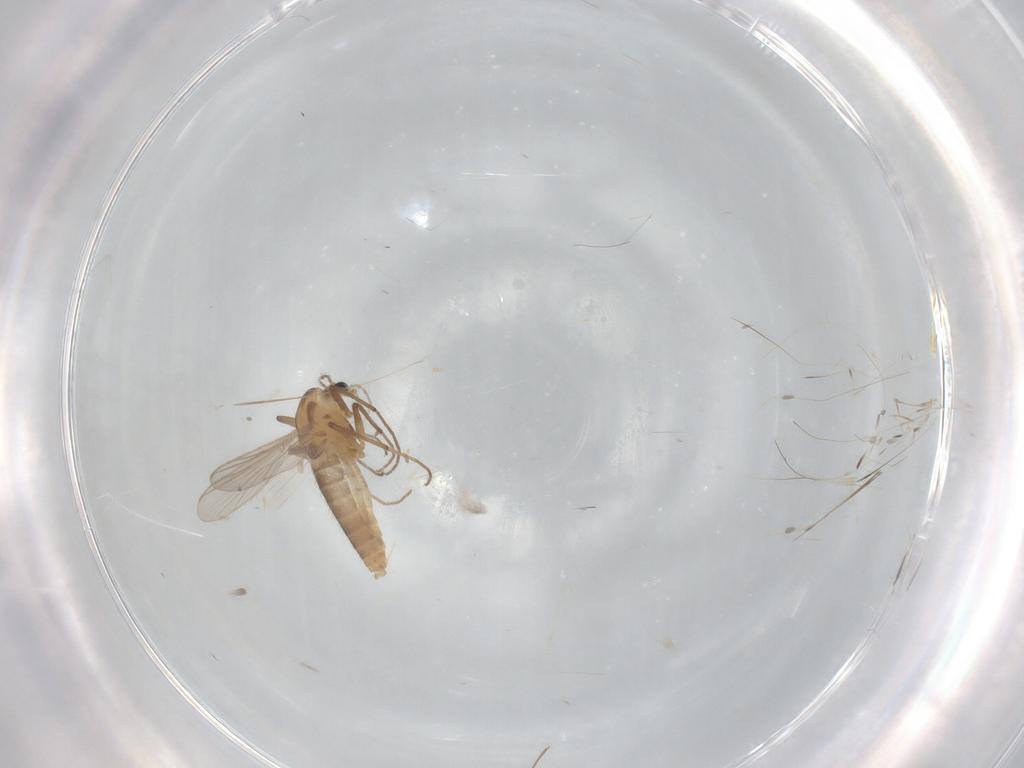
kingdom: Animalia
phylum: Arthropoda
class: Insecta
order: Diptera
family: Chironomidae
